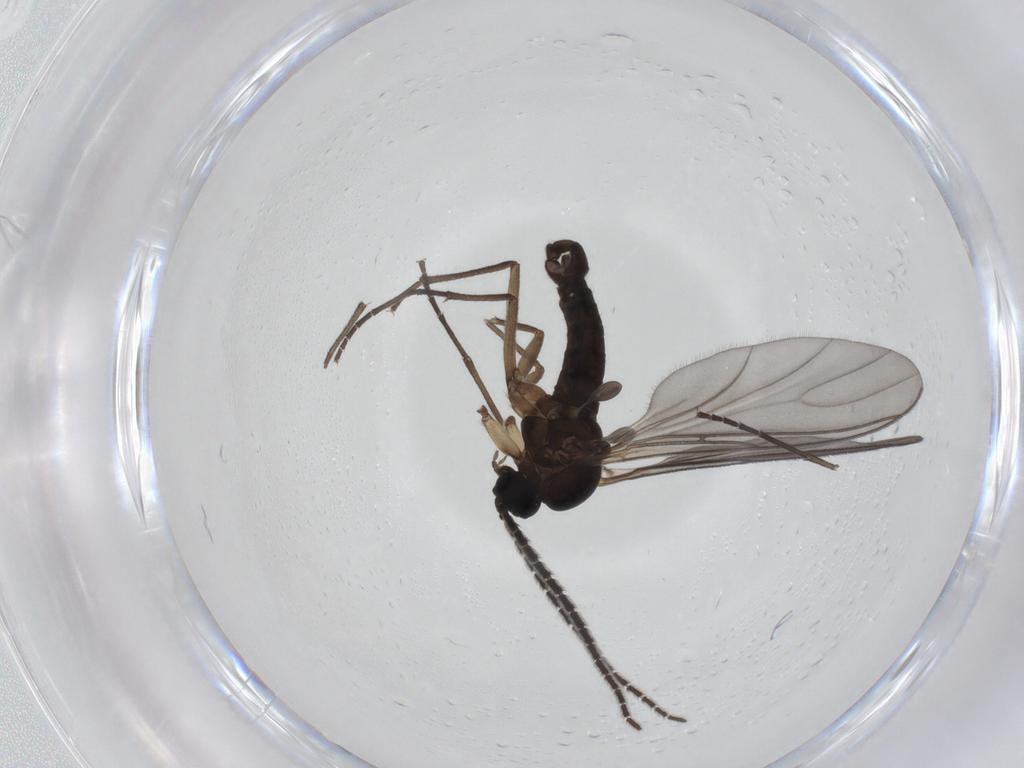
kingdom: Animalia
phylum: Arthropoda
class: Insecta
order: Diptera
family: Sciaridae
